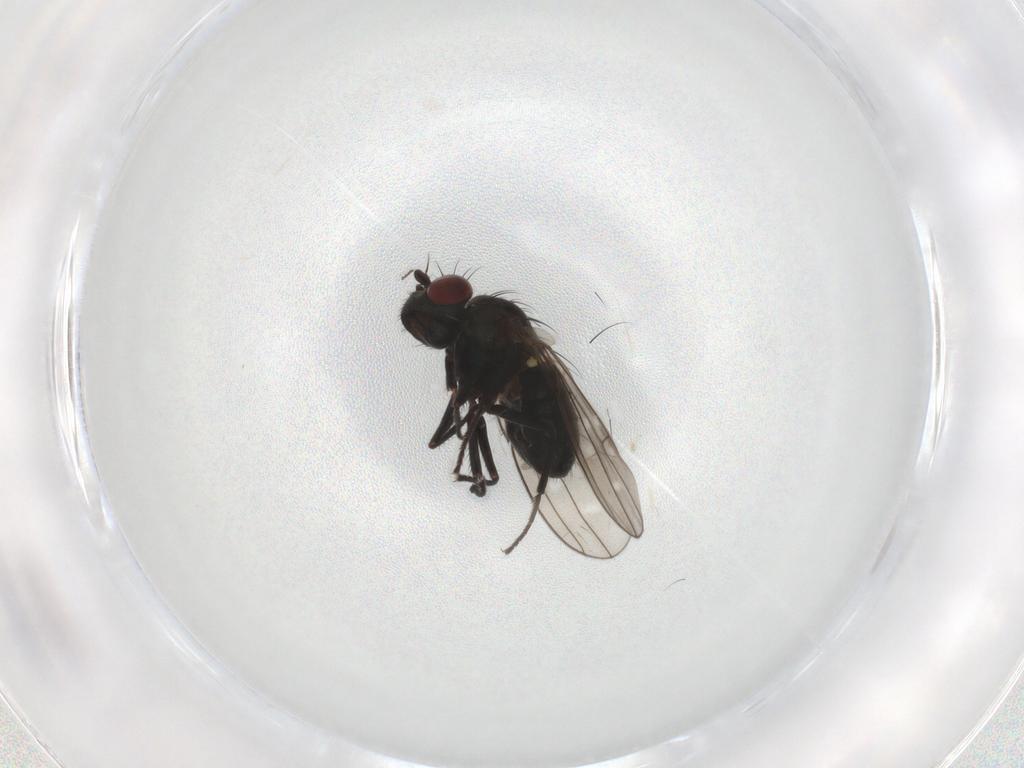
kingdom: Animalia
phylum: Arthropoda
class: Insecta
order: Diptera
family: Ephydridae
